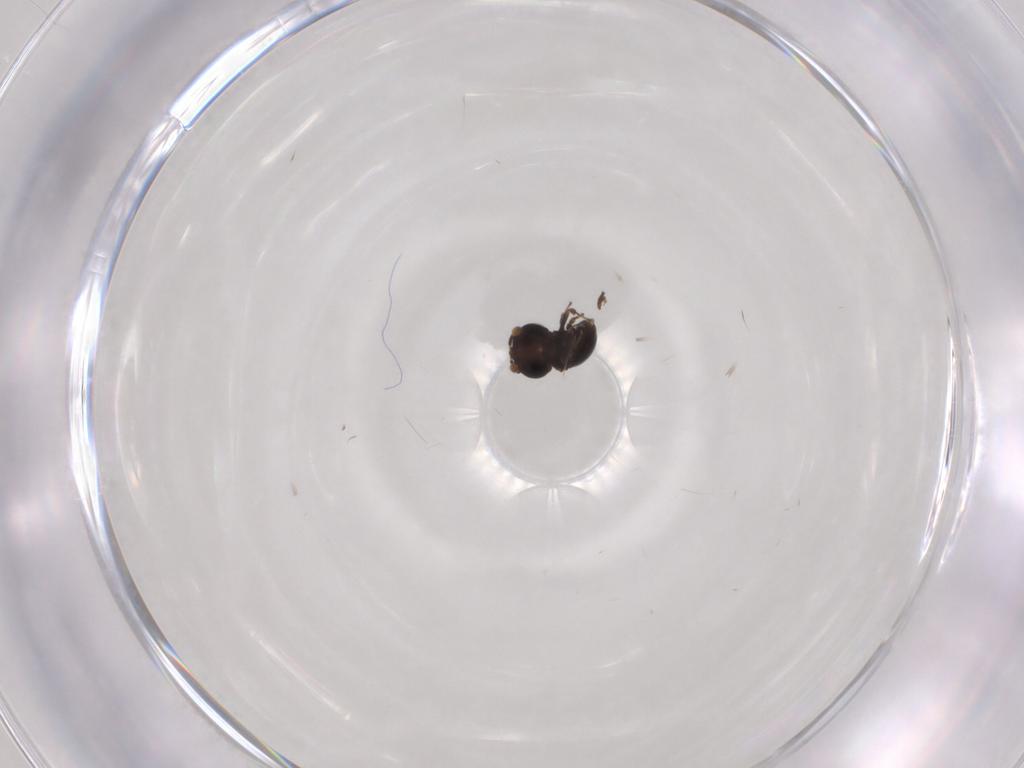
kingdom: Animalia
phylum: Arthropoda
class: Insecta
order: Hymenoptera
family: Scelionidae
